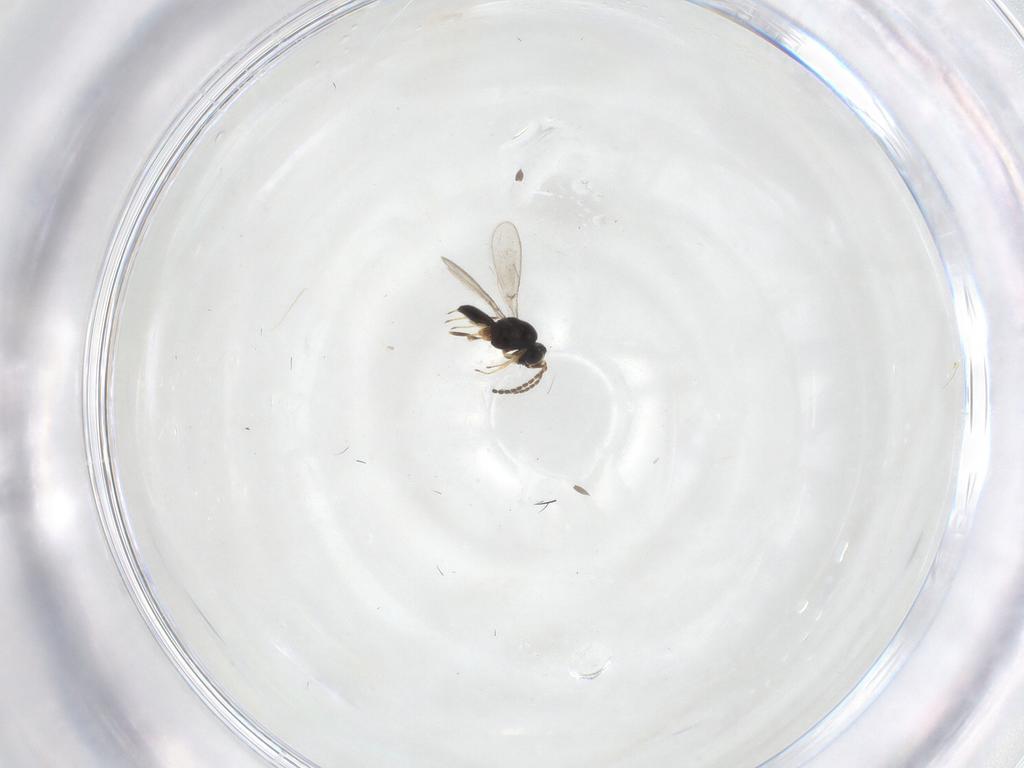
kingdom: Animalia
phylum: Arthropoda
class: Insecta
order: Hymenoptera
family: Scelionidae
